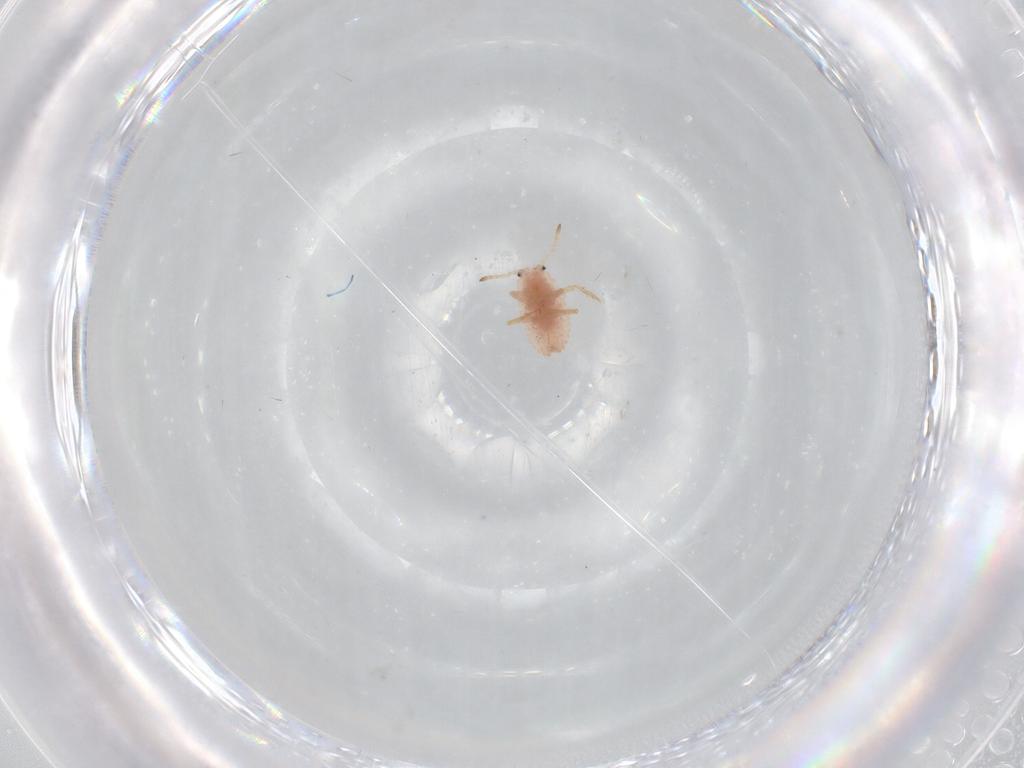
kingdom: Animalia
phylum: Arthropoda
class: Insecta
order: Hemiptera
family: Coccoidea_incertae_sedis
